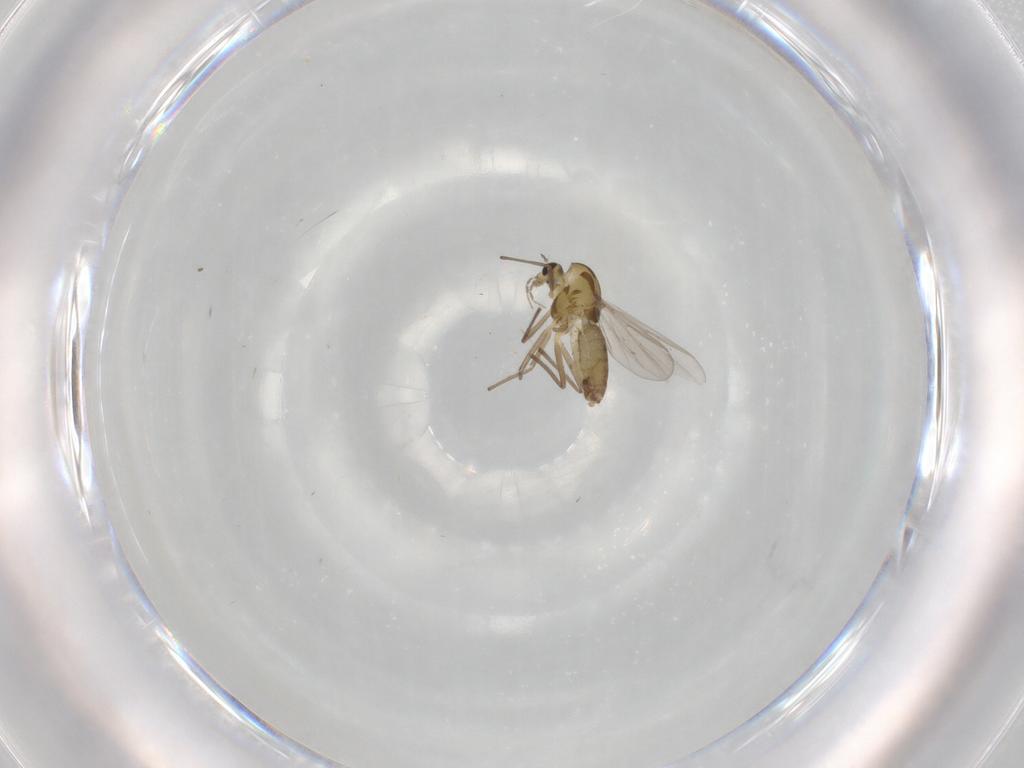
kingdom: Animalia
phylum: Arthropoda
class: Insecta
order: Diptera
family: Chironomidae
